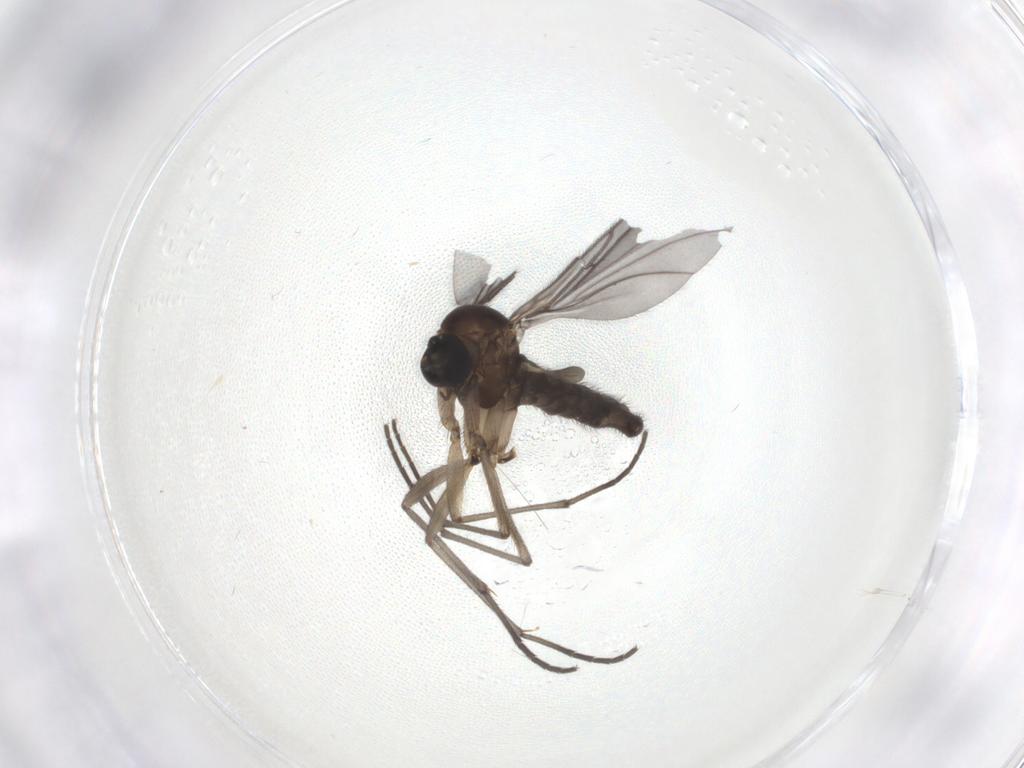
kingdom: Animalia
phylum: Arthropoda
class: Insecta
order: Diptera
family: Sciaridae
